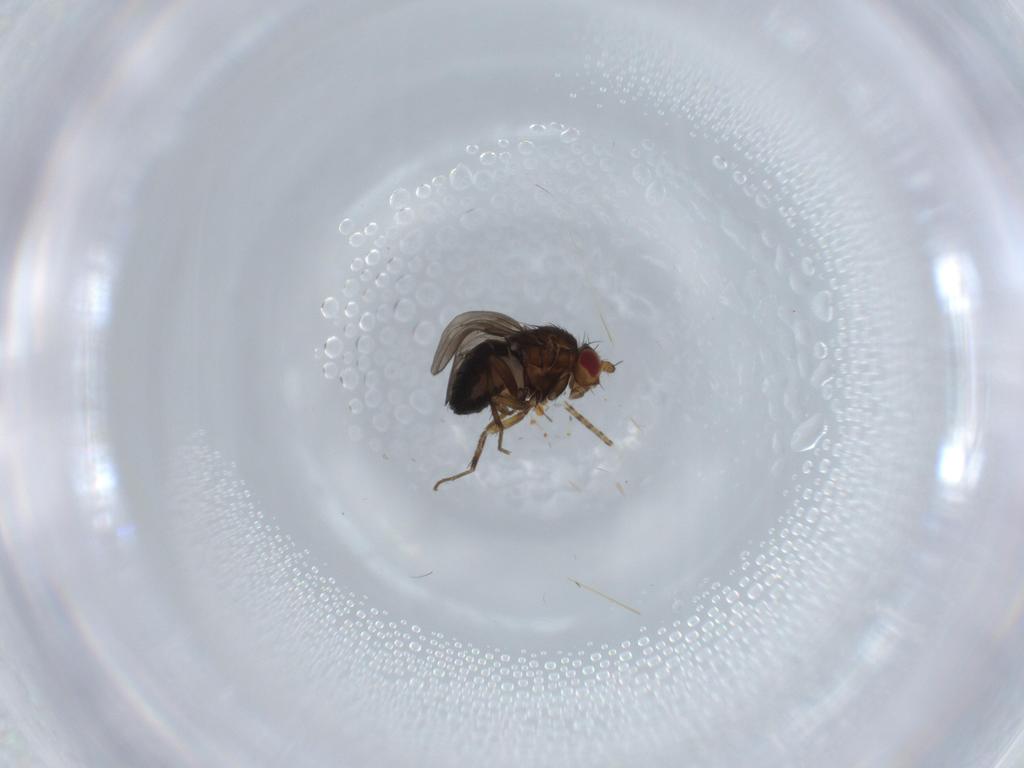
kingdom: Animalia
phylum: Arthropoda
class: Insecta
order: Diptera
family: Sphaeroceridae
